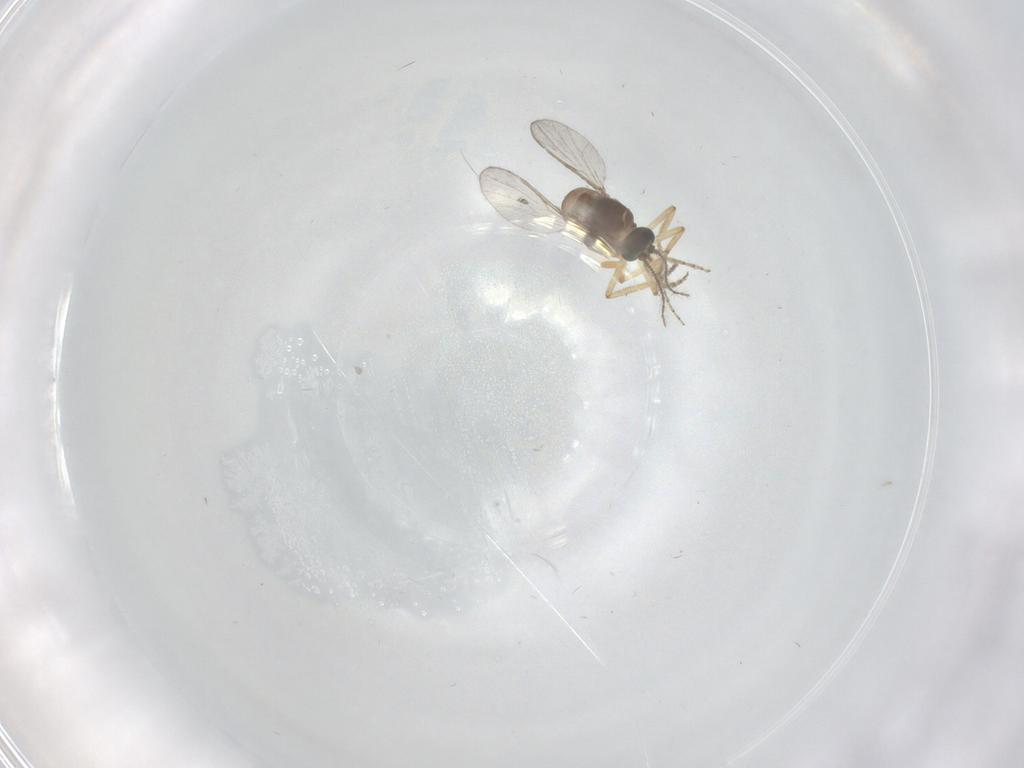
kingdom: Animalia
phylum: Arthropoda
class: Insecta
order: Diptera
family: Ceratopogonidae
